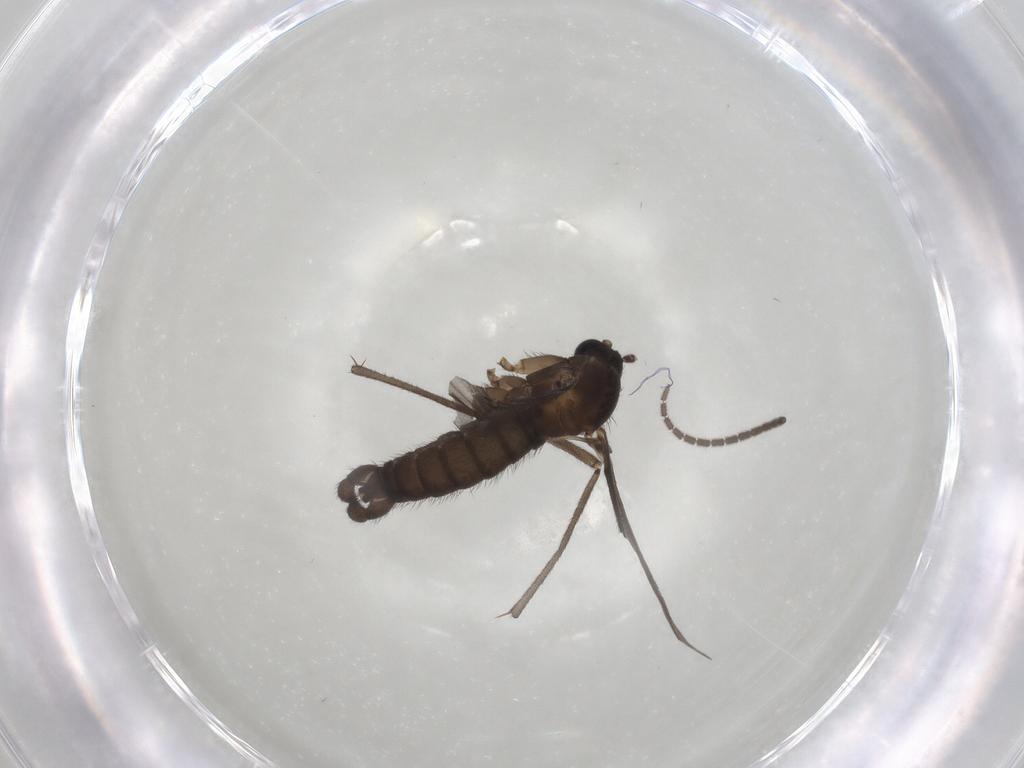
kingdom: Animalia
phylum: Arthropoda
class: Insecta
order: Diptera
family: Sciaridae
